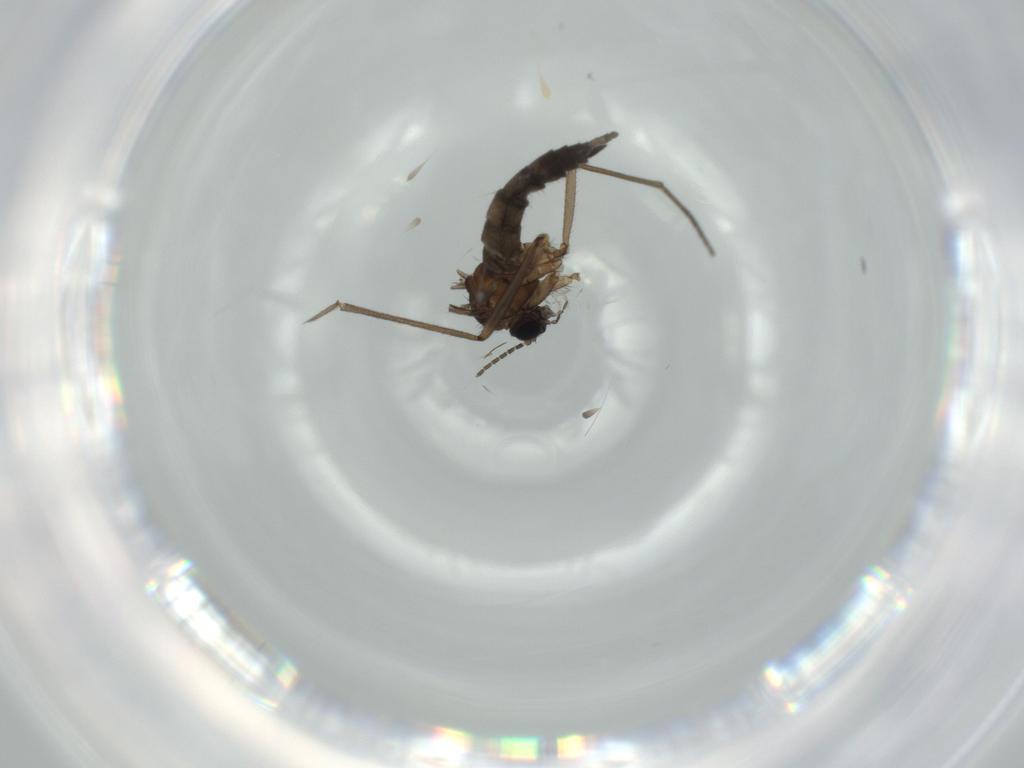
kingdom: Animalia
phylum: Arthropoda
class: Insecta
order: Diptera
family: Sciaridae
